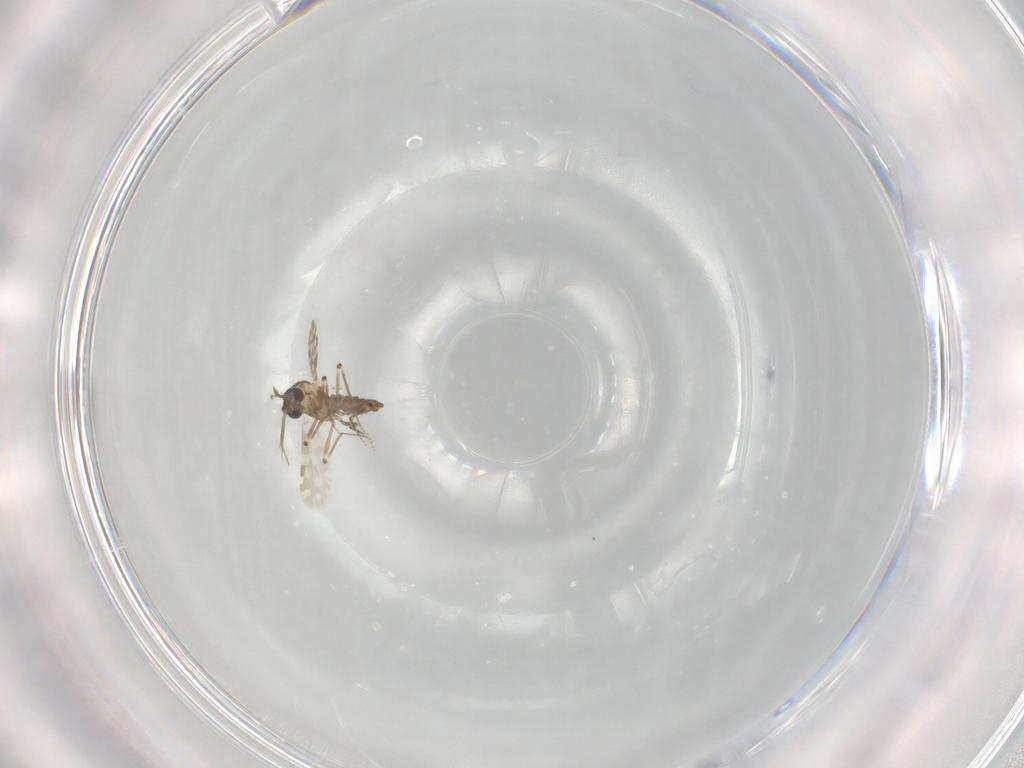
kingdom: Animalia
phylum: Arthropoda
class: Insecta
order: Diptera
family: Ceratopogonidae
